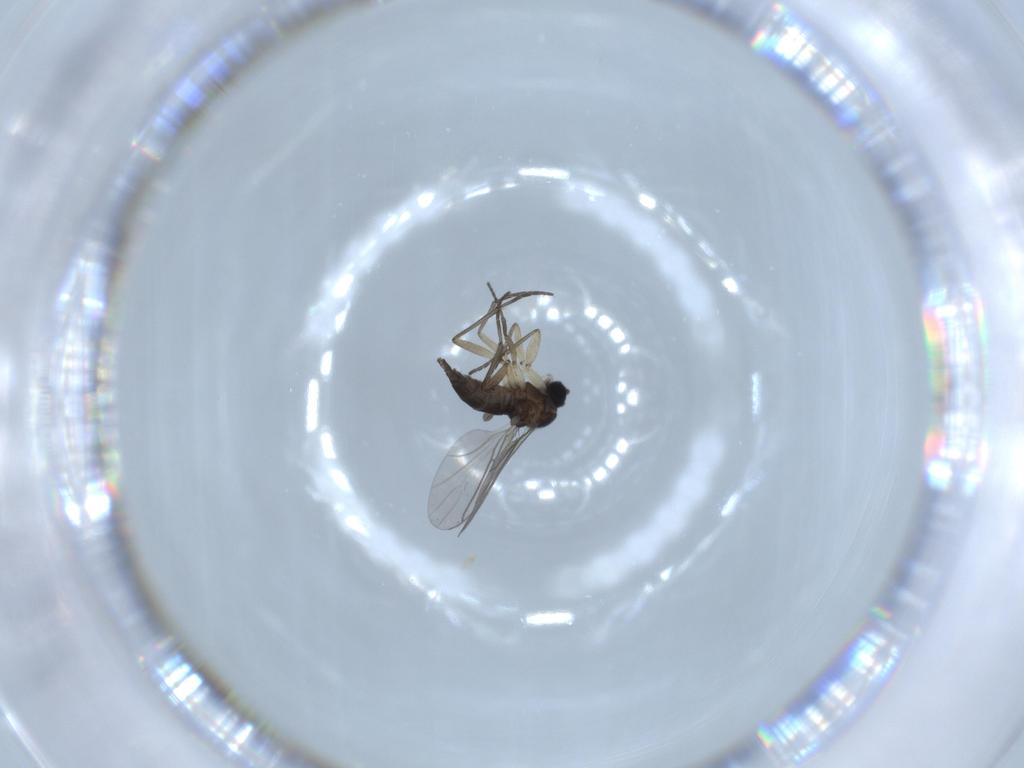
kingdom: Animalia
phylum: Arthropoda
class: Insecta
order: Diptera
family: Sciaridae
